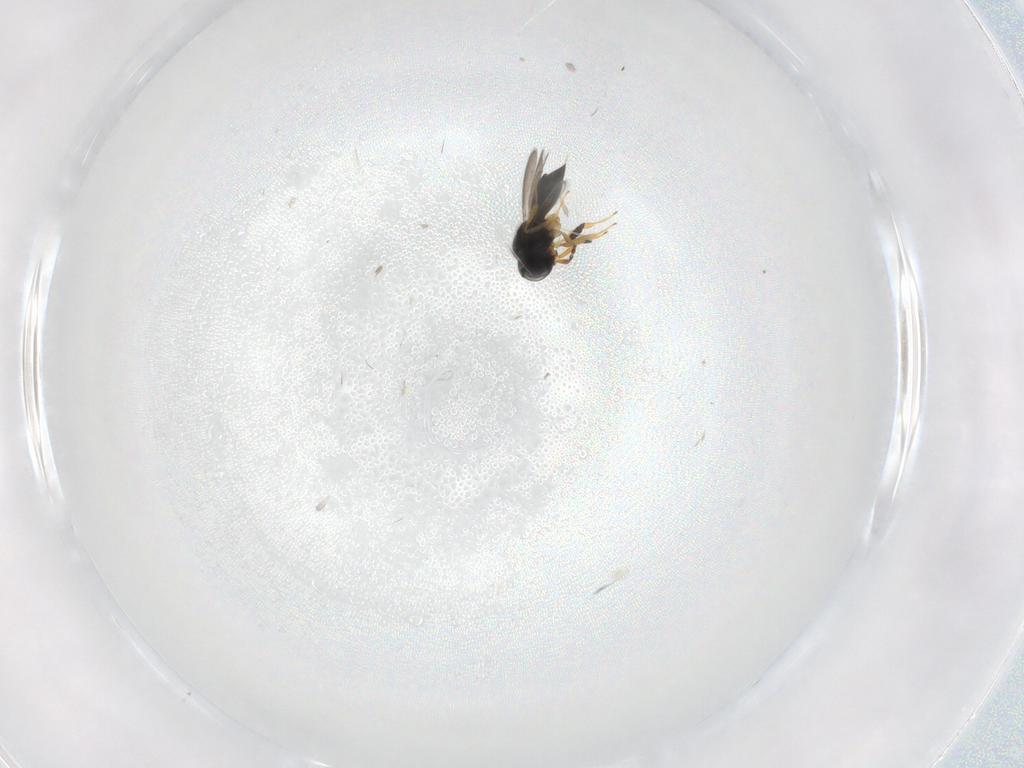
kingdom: Animalia
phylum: Arthropoda
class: Insecta
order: Hymenoptera
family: Scelionidae
